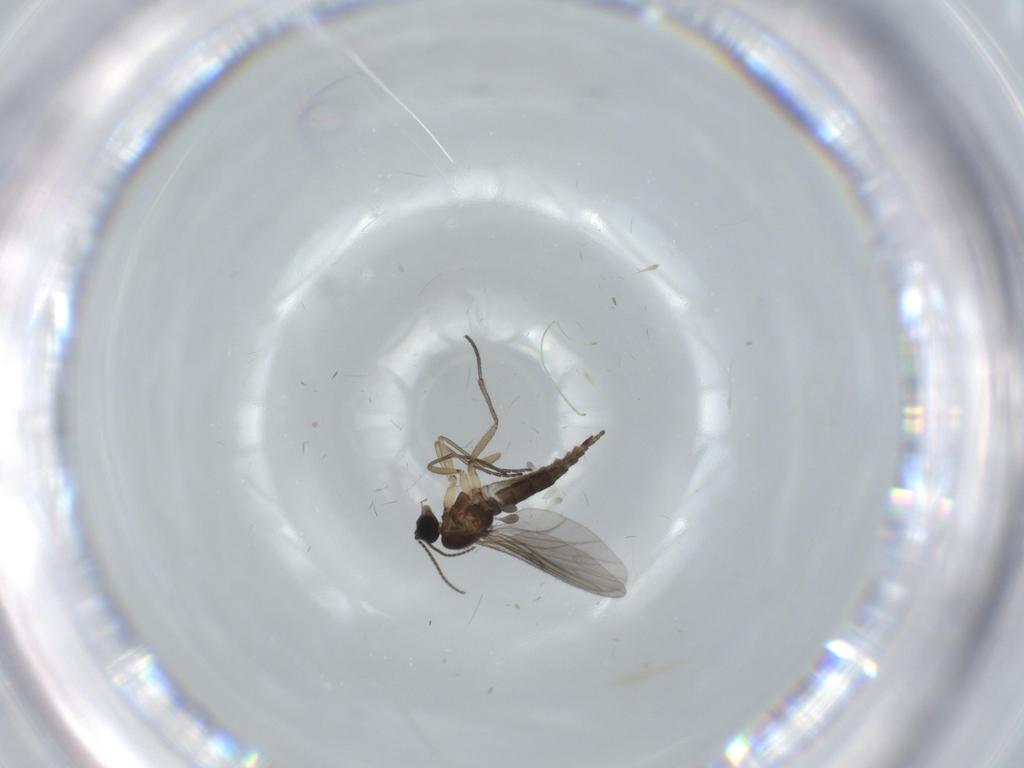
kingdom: Animalia
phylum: Arthropoda
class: Insecta
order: Diptera
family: Sciaridae
